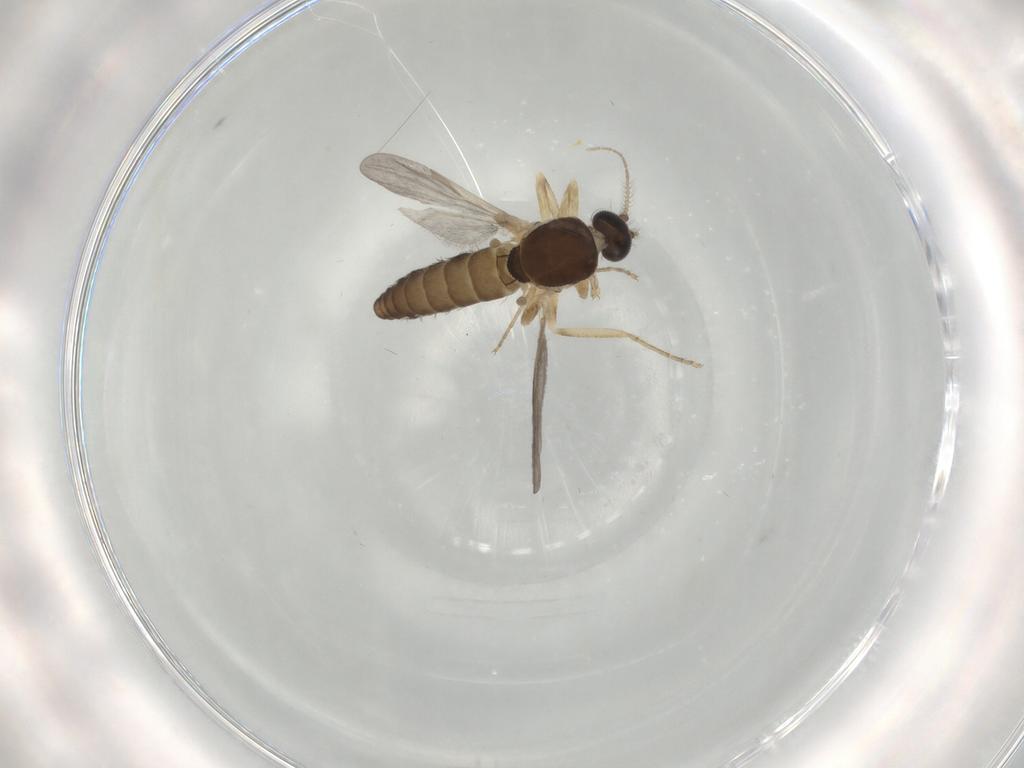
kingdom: Animalia
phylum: Arthropoda
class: Insecta
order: Diptera
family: Ceratopogonidae
